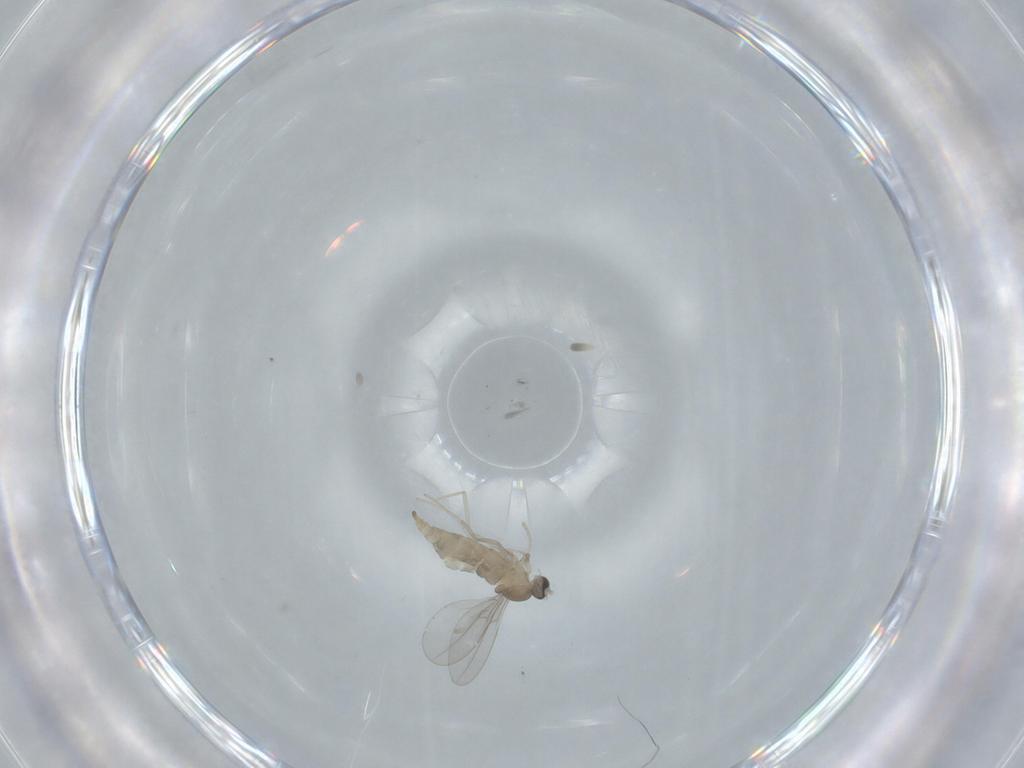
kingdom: Animalia
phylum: Arthropoda
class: Insecta
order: Diptera
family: Cecidomyiidae
